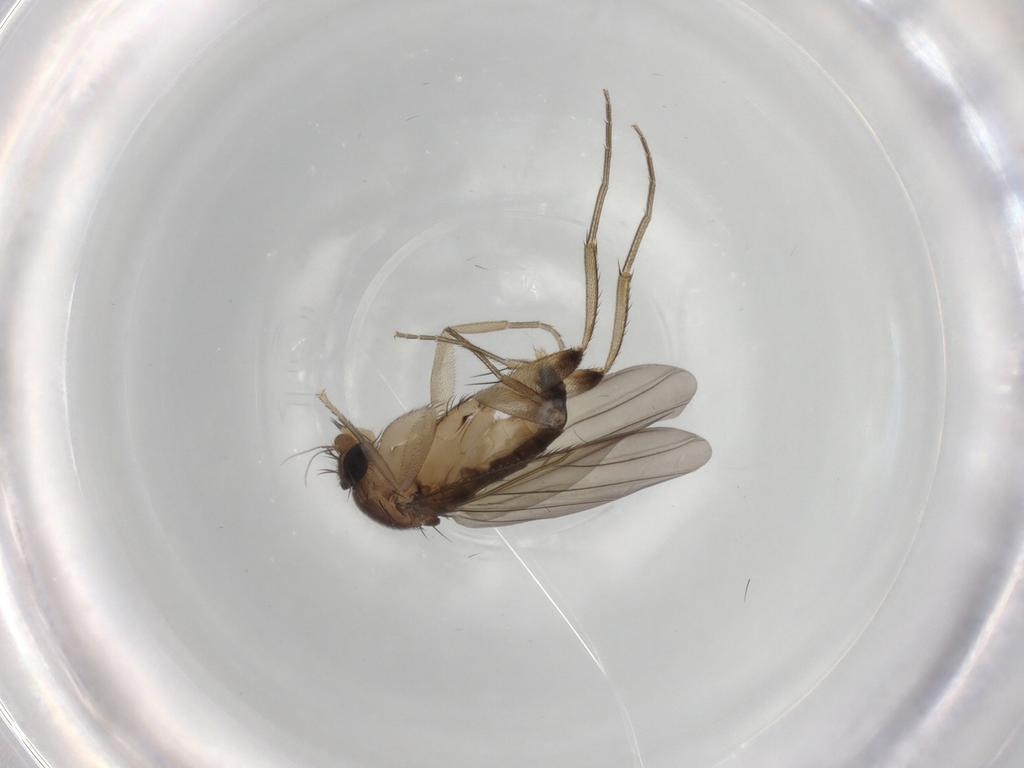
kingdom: Animalia
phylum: Arthropoda
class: Insecta
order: Diptera
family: Phoridae
